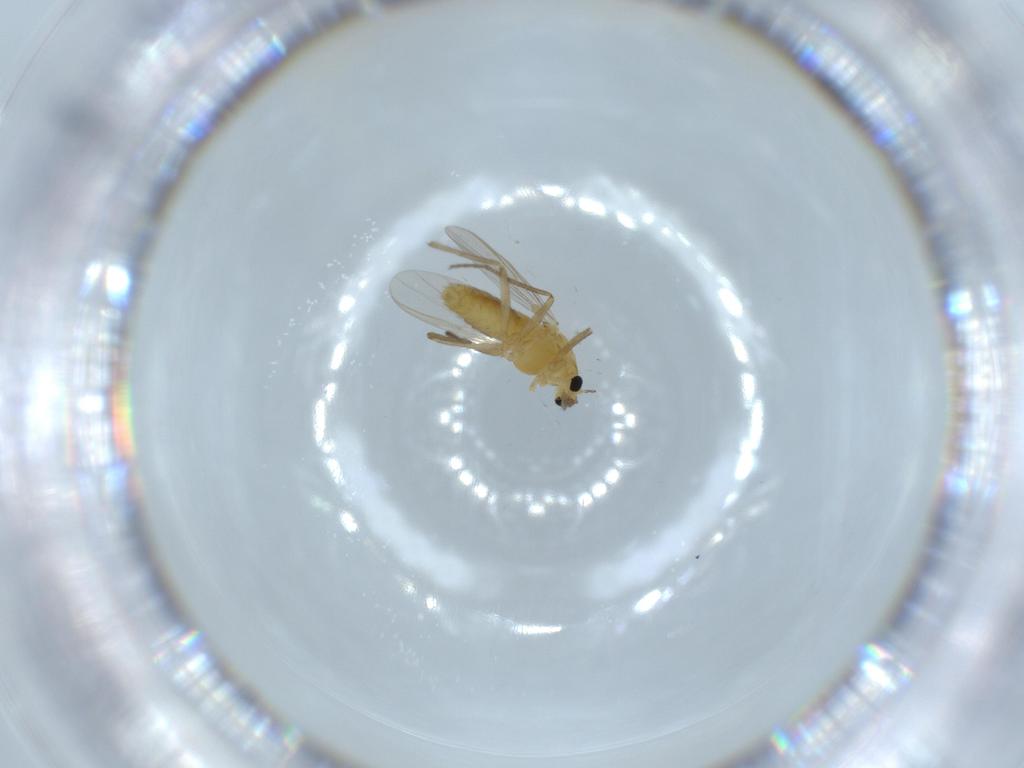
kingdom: Animalia
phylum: Arthropoda
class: Insecta
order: Diptera
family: Chironomidae
